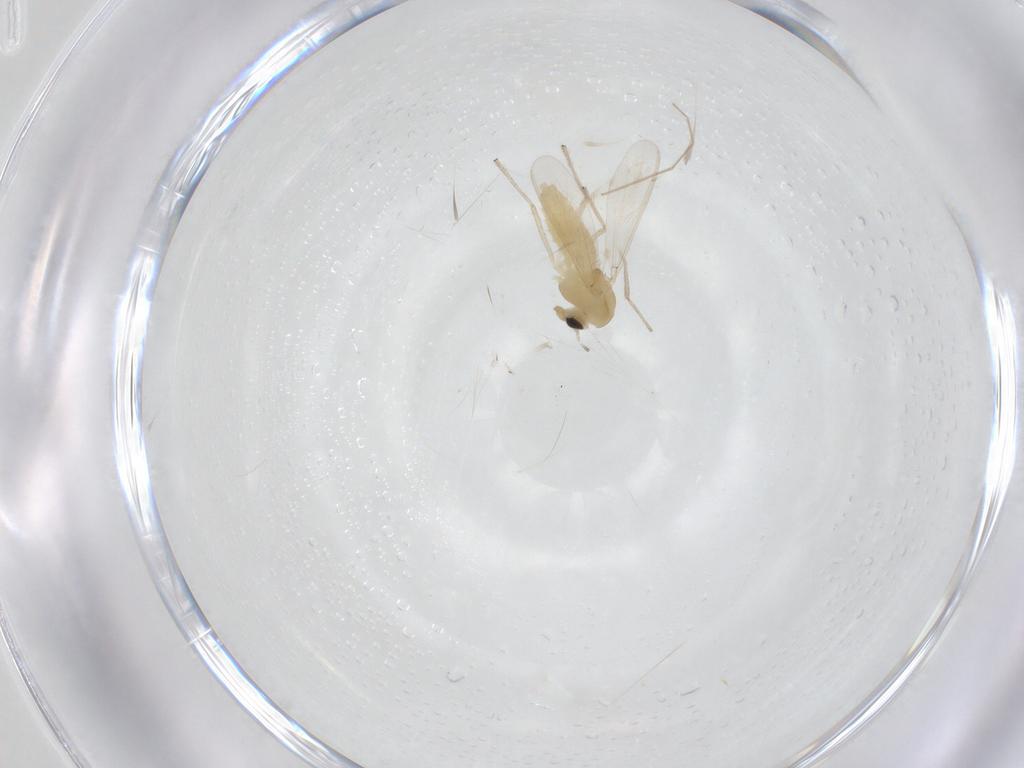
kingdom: Animalia
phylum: Arthropoda
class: Insecta
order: Diptera
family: Chironomidae
